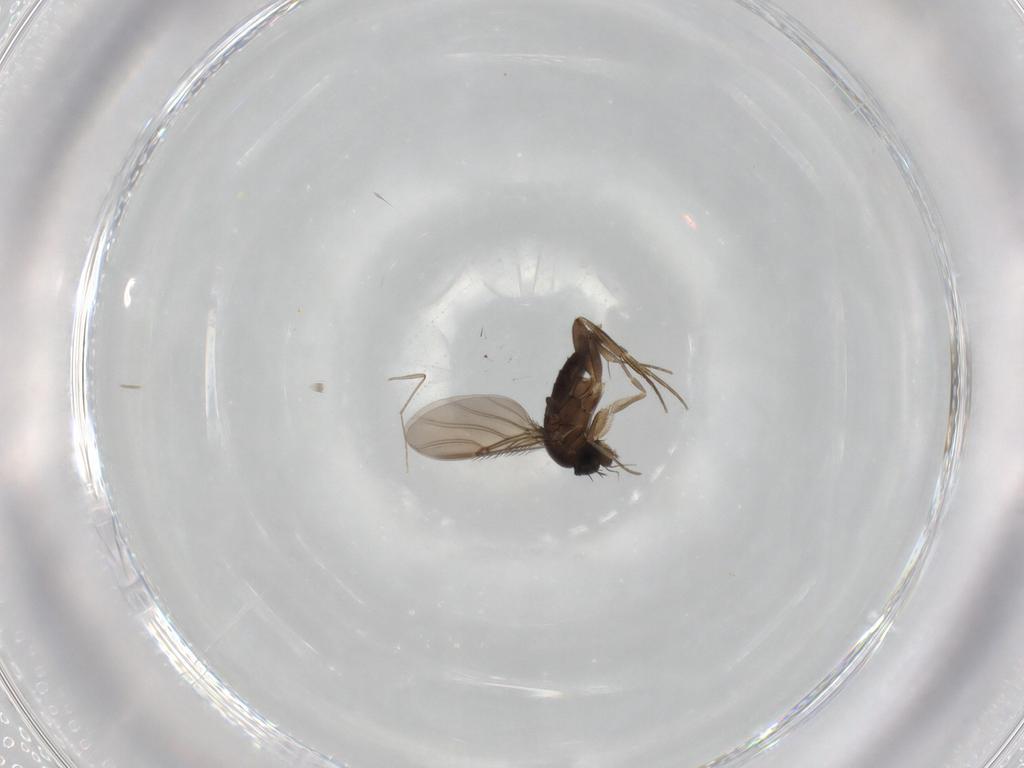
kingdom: Animalia
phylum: Arthropoda
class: Insecta
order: Diptera
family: Phoridae
